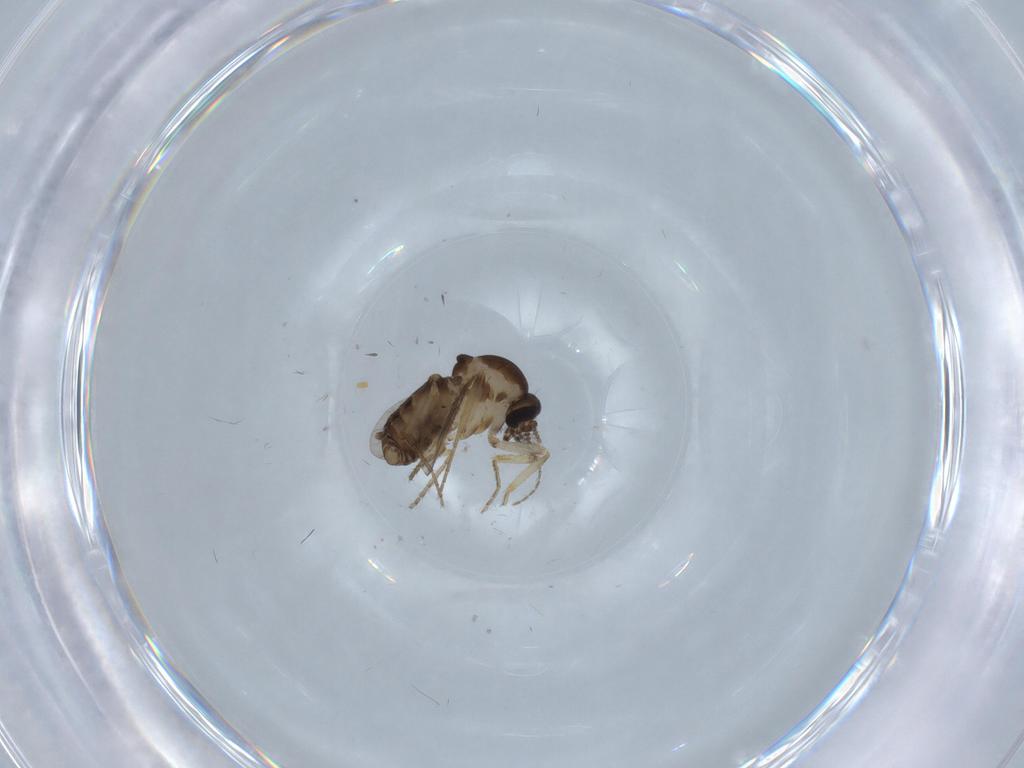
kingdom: Animalia
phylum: Arthropoda
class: Insecta
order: Diptera
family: Ceratopogonidae
